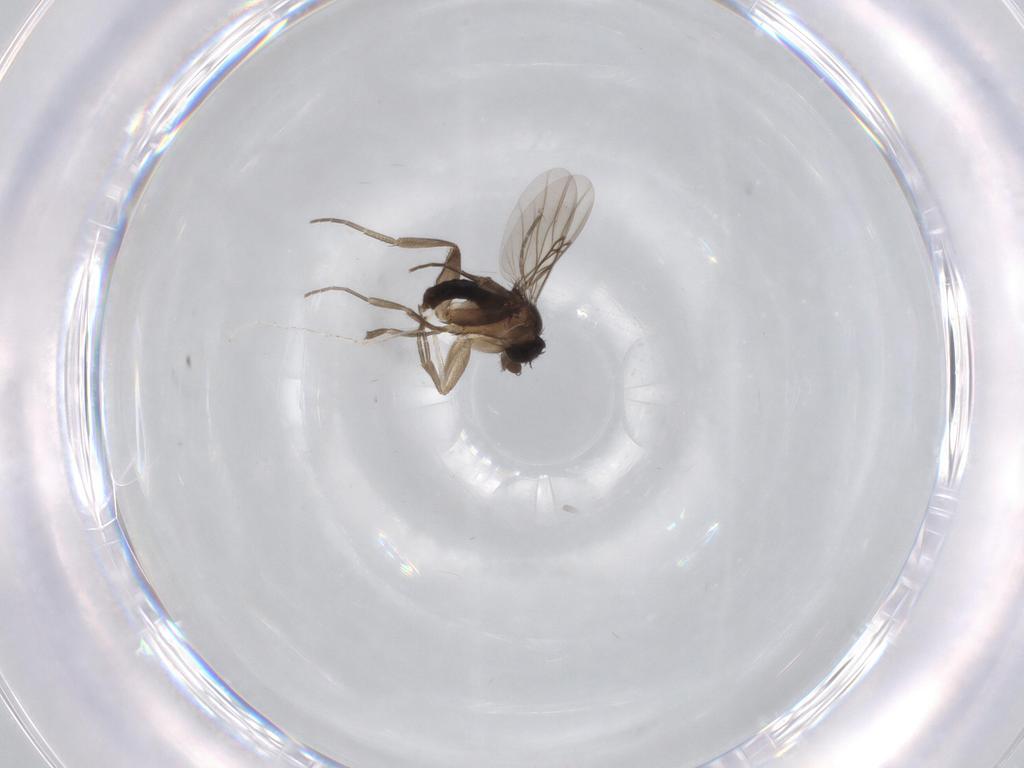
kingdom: Animalia
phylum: Arthropoda
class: Insecta
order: Diptera
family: Phoridae
